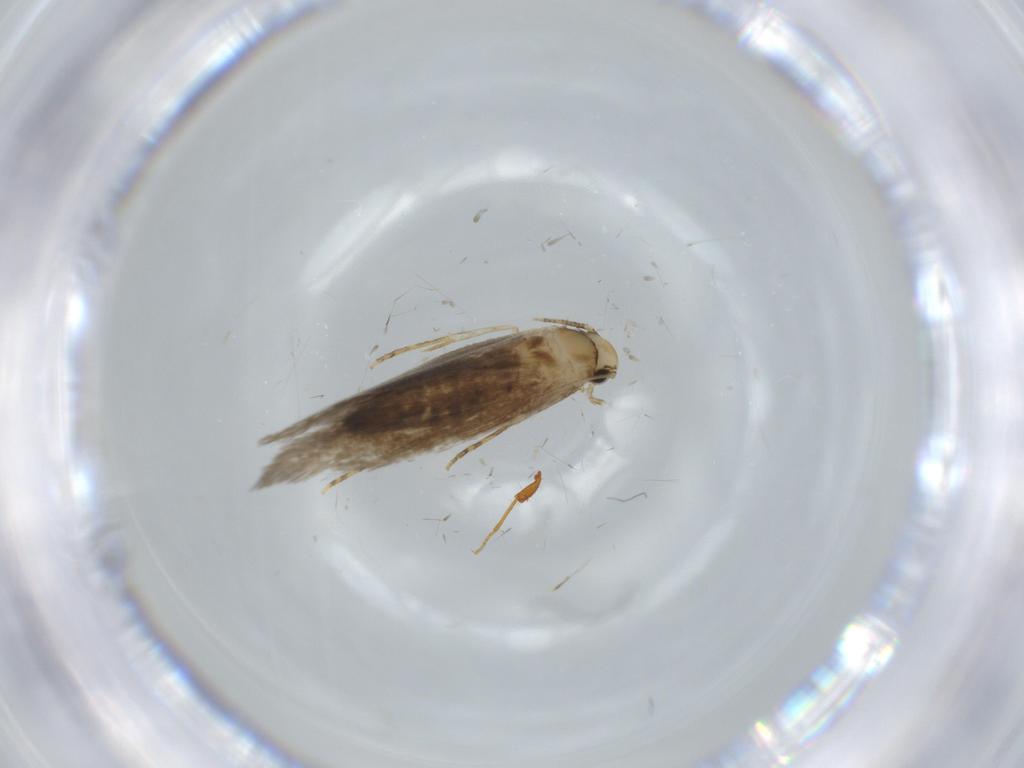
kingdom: Animalia
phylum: Arthropoda
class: Insecta
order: Lepidoptera
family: Tineidae
